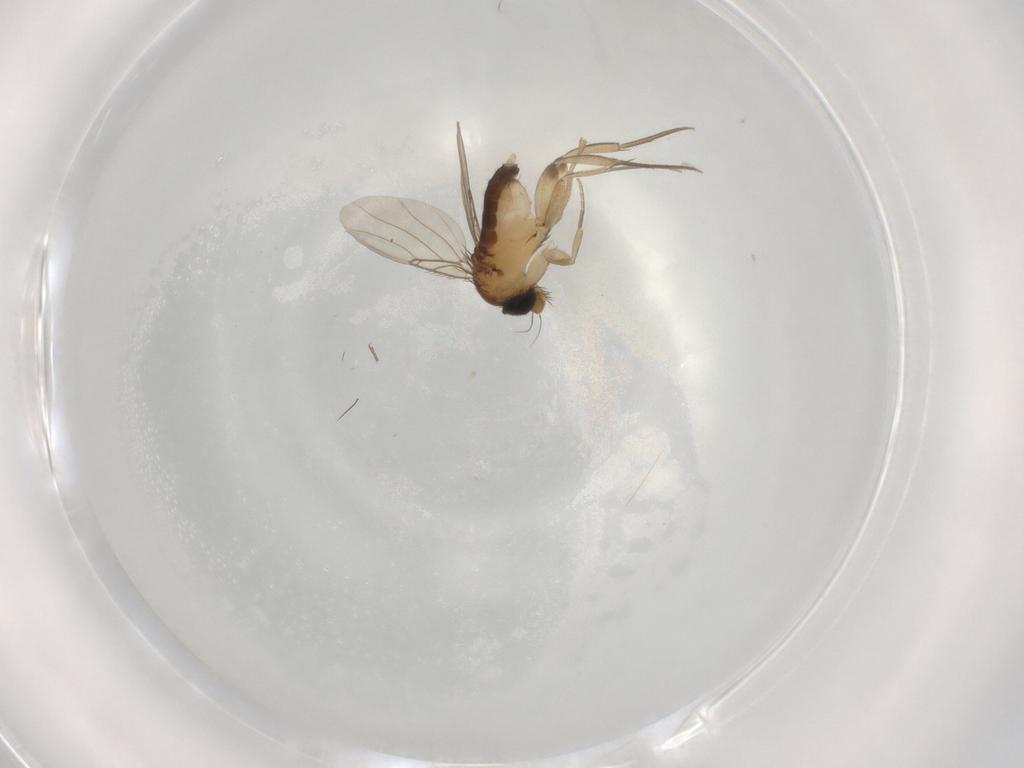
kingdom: Animalia
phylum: Arthropoda
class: Insecta
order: Diptera
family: Phoridae
